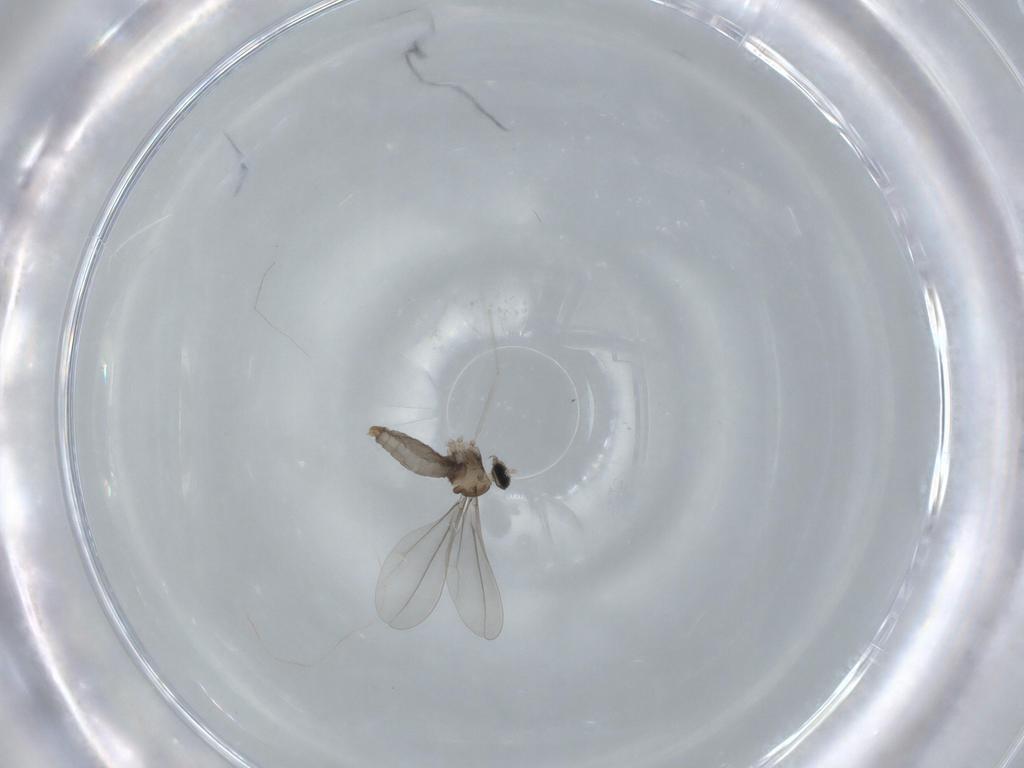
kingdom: Animalia
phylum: Arthropoda
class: Insecta
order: Diptera
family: Cecidomyiidae
